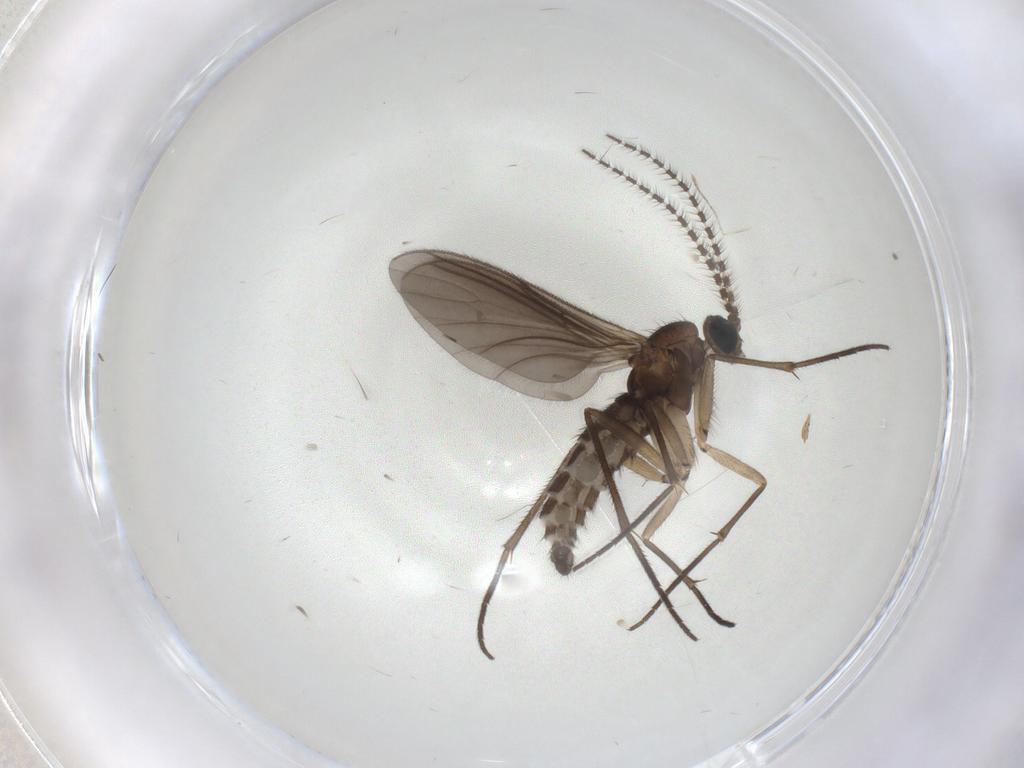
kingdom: Animalia
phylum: Arthropoda
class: Insecta
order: Diptera
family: Sciaridae
